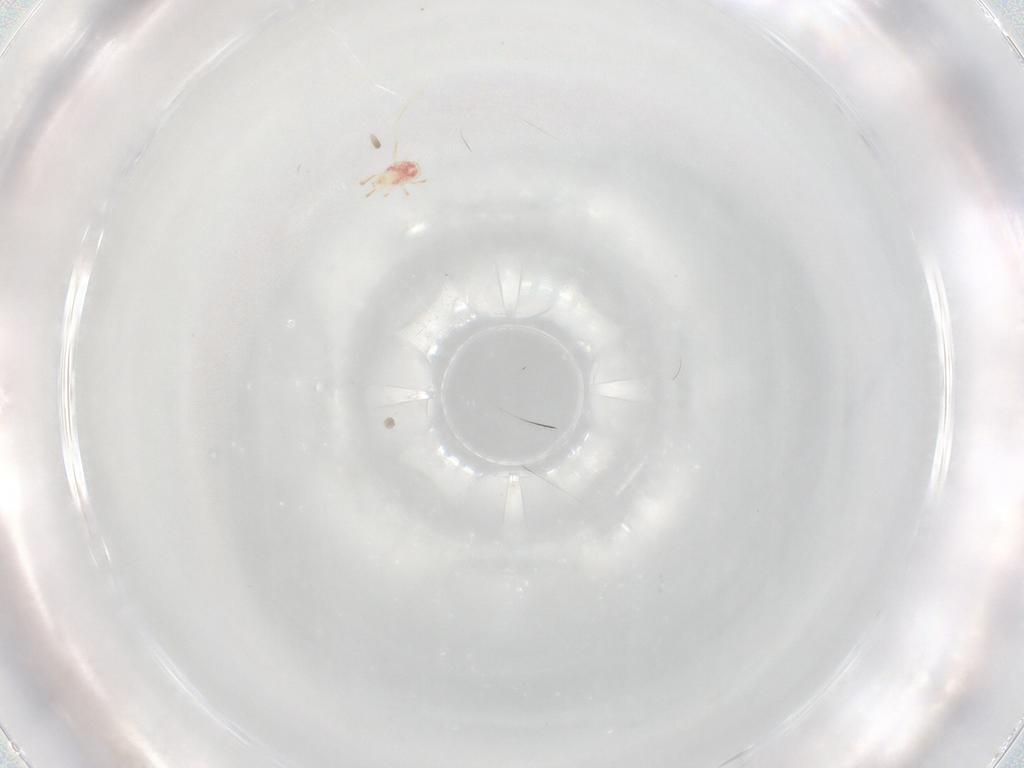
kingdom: Animalia
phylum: Arthropoda
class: Arachnida
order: Mesostigmata
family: Phytoseiidae
